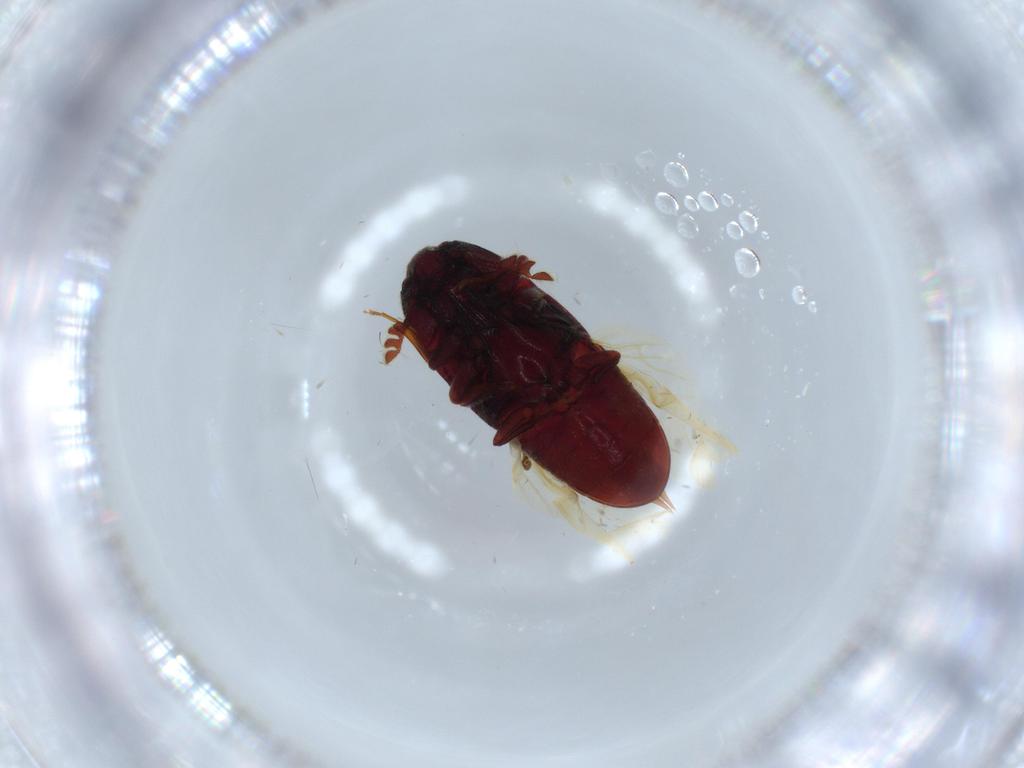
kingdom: Animalia
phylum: Arthropoda
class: Insecta
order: Coleoptera
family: Throscidae
